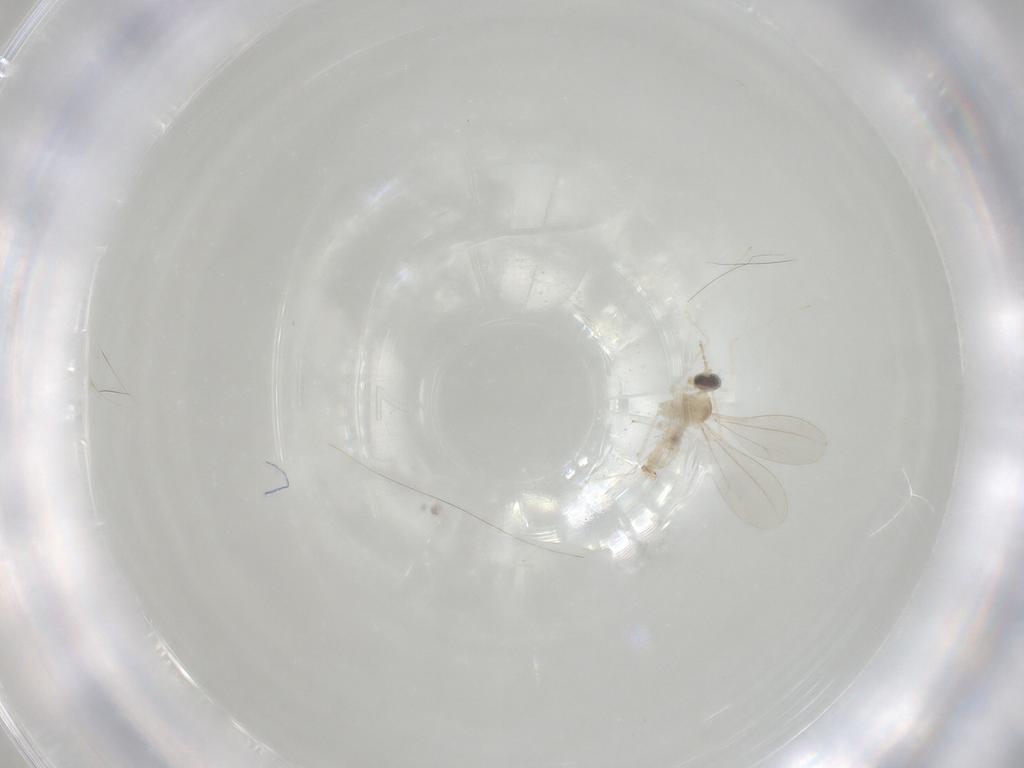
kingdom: Animalia
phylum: Arthropoda
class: Insecta
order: Diptera
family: Cecidomyiidae
